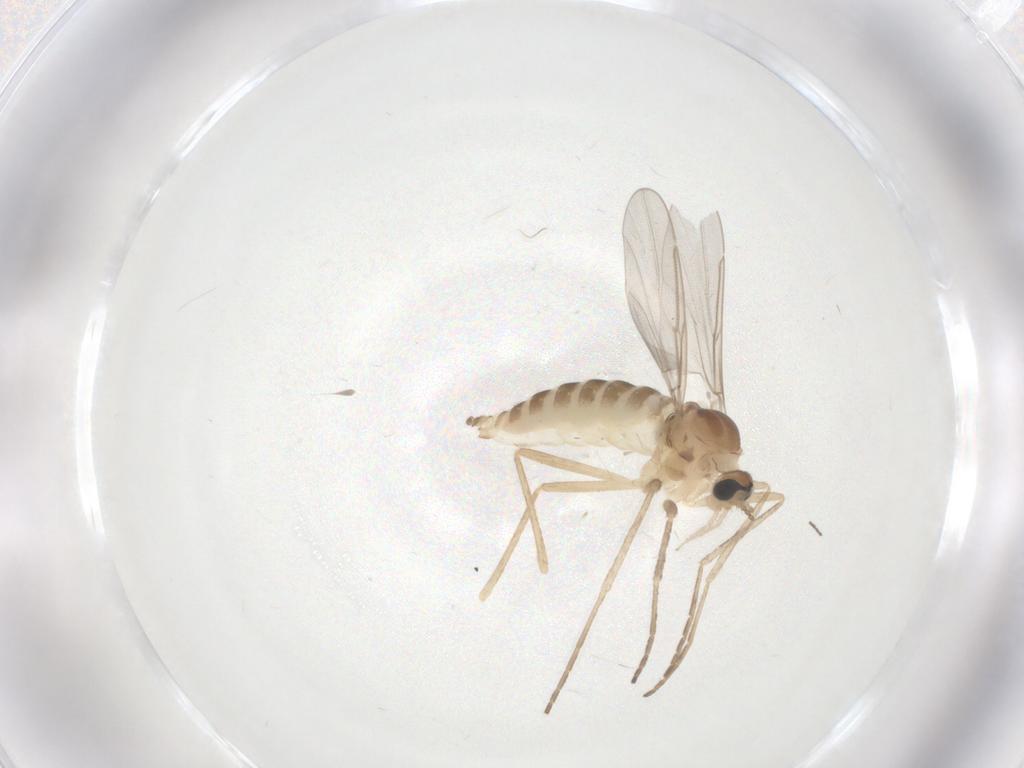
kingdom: Animalia
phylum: Arthropoda
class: Insecta
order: Diptera
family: Cecidomyiidae
